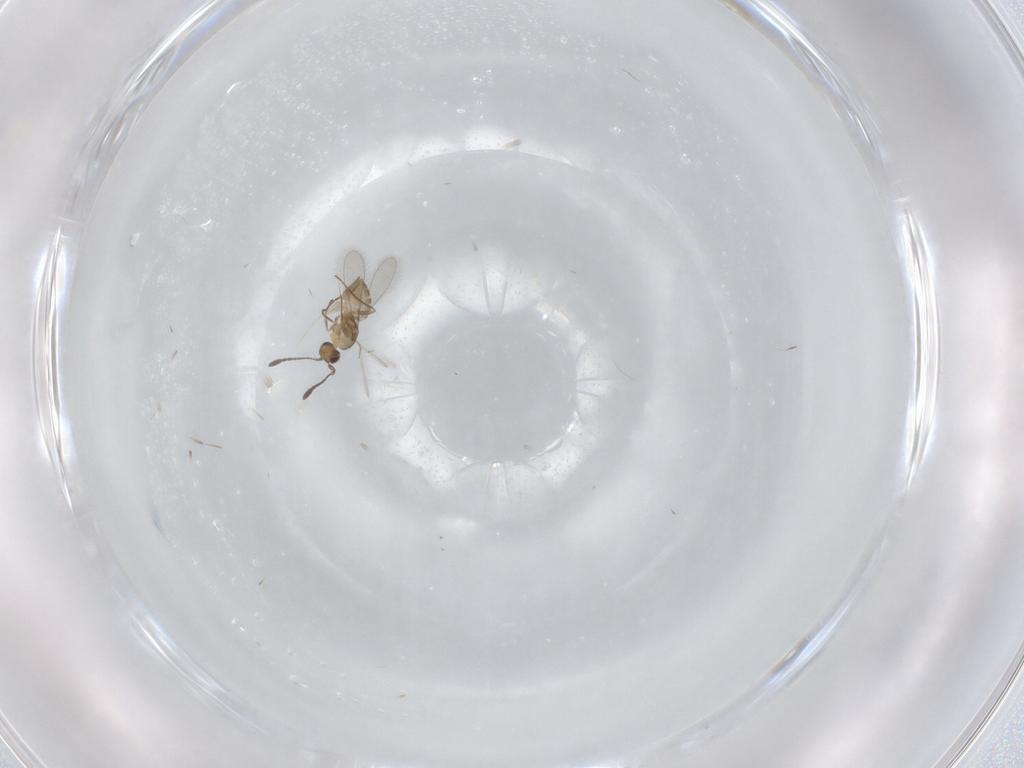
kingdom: Animalia
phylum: Arthropoda
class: Insecta
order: Hymenoptera
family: Mymaridae
